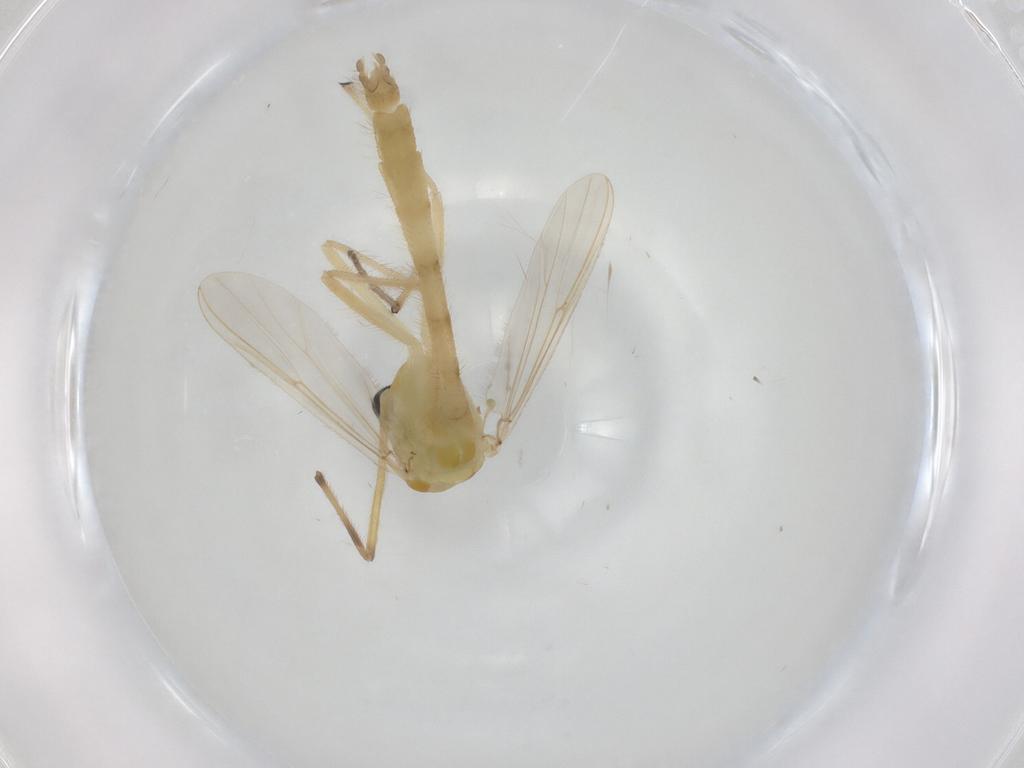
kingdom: Animalia
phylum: Arthropoda
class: Insecta
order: Diptera
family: Chironomidae
